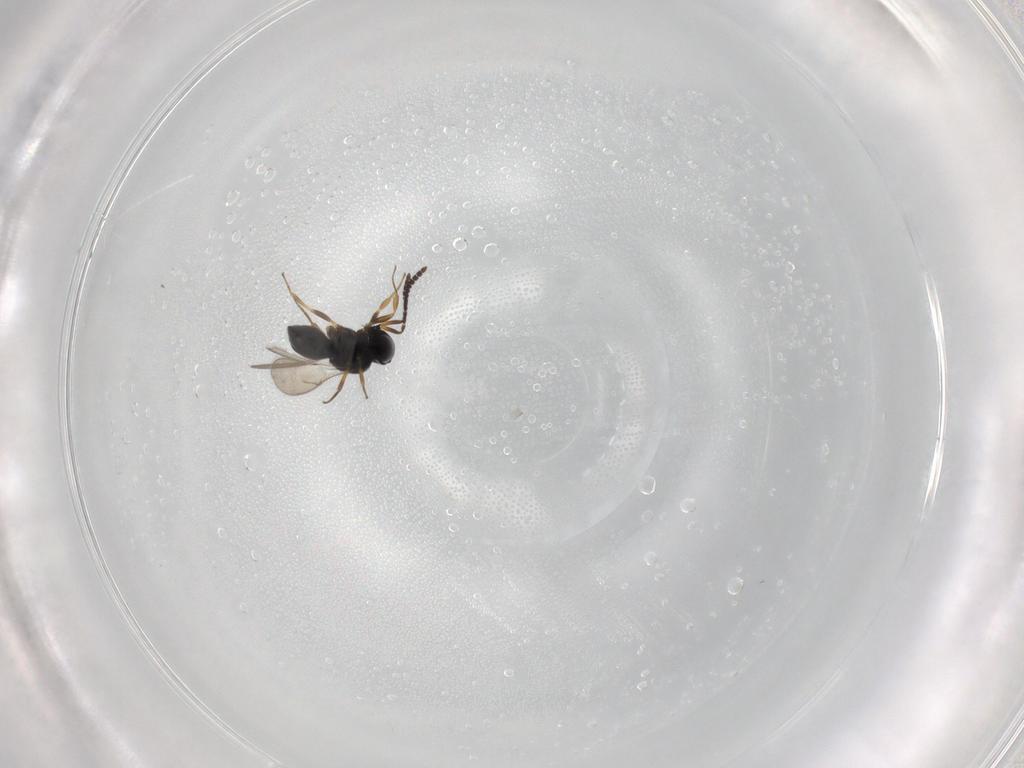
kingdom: Animalia
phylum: Arthropoda
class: Insecta
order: Hymenoptera
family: Scelionidae
